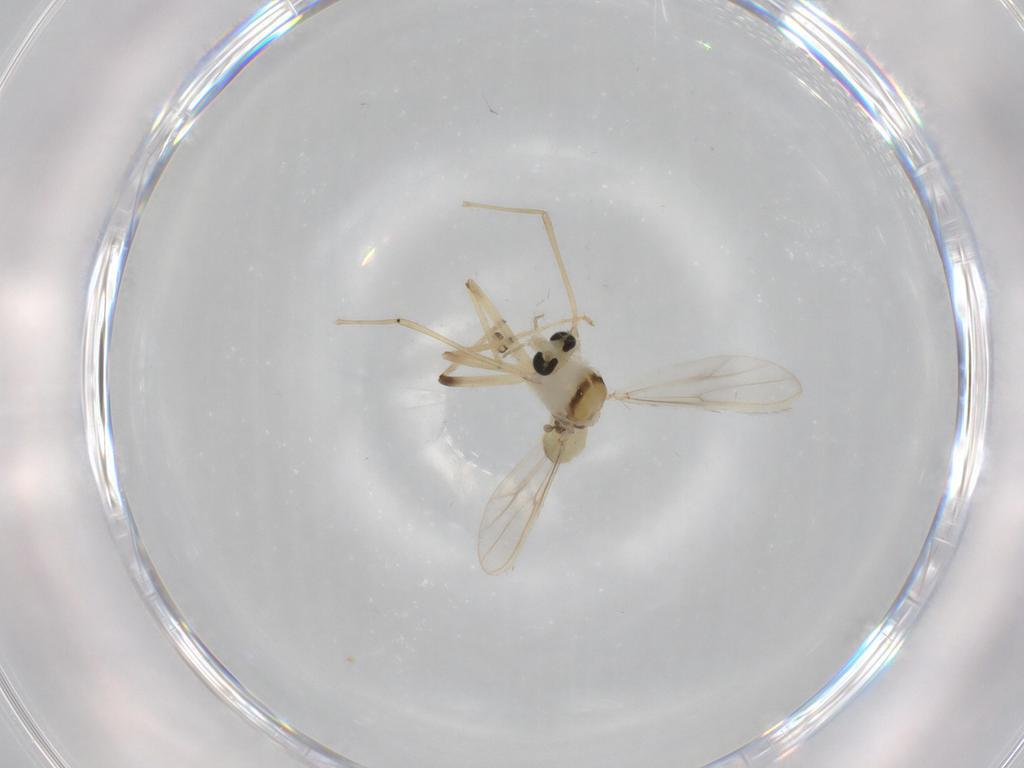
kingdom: Animalia
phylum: Arthropoda
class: Insecta
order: Diptera
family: Chironomidae
